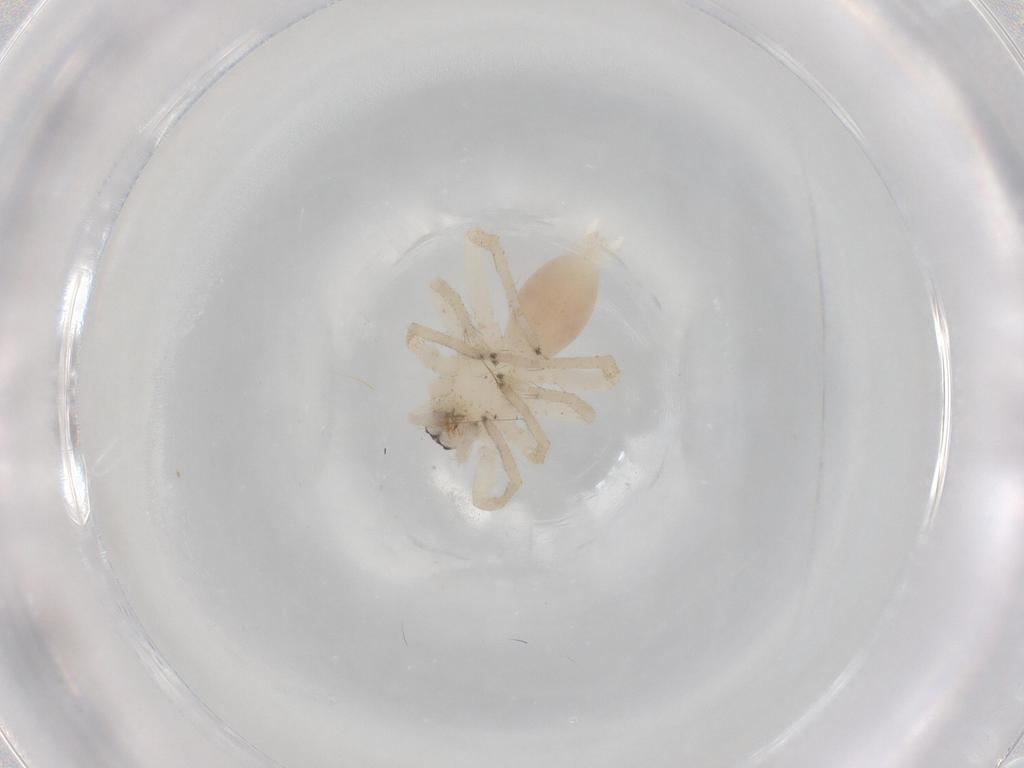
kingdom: Animalia
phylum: Arthropoda
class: Arachnida
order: Araneae
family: Clubionidae
